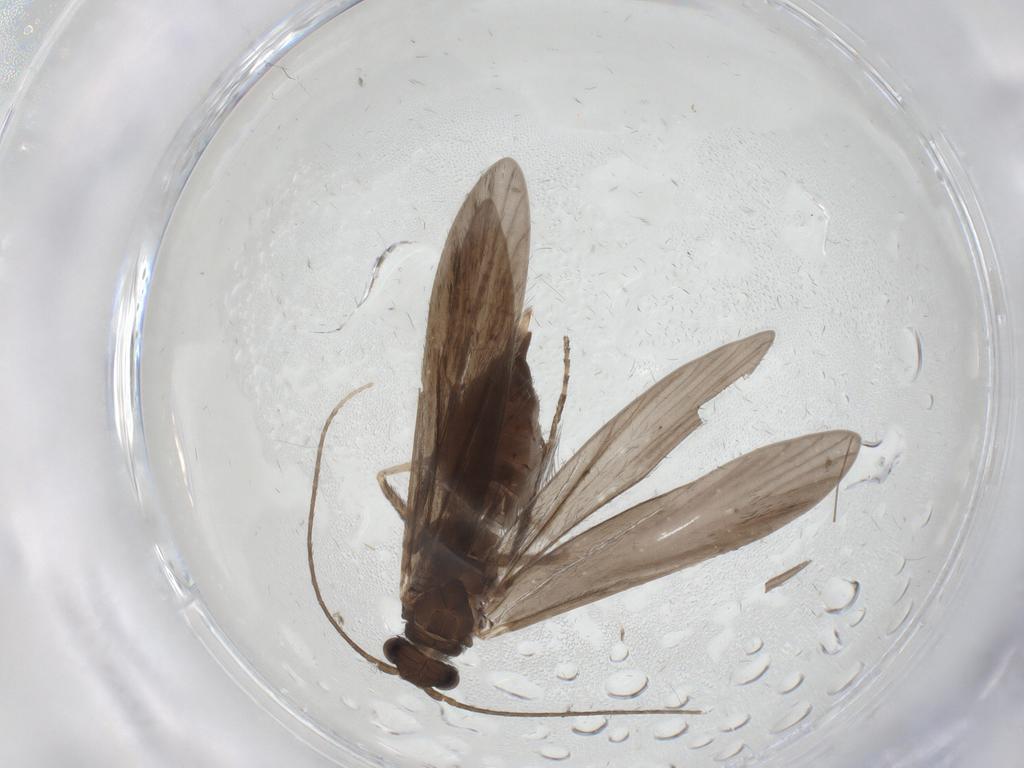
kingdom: Animalia
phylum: Arthropoda
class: Insecta
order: Trichoptera
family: Xiphocentronidae
